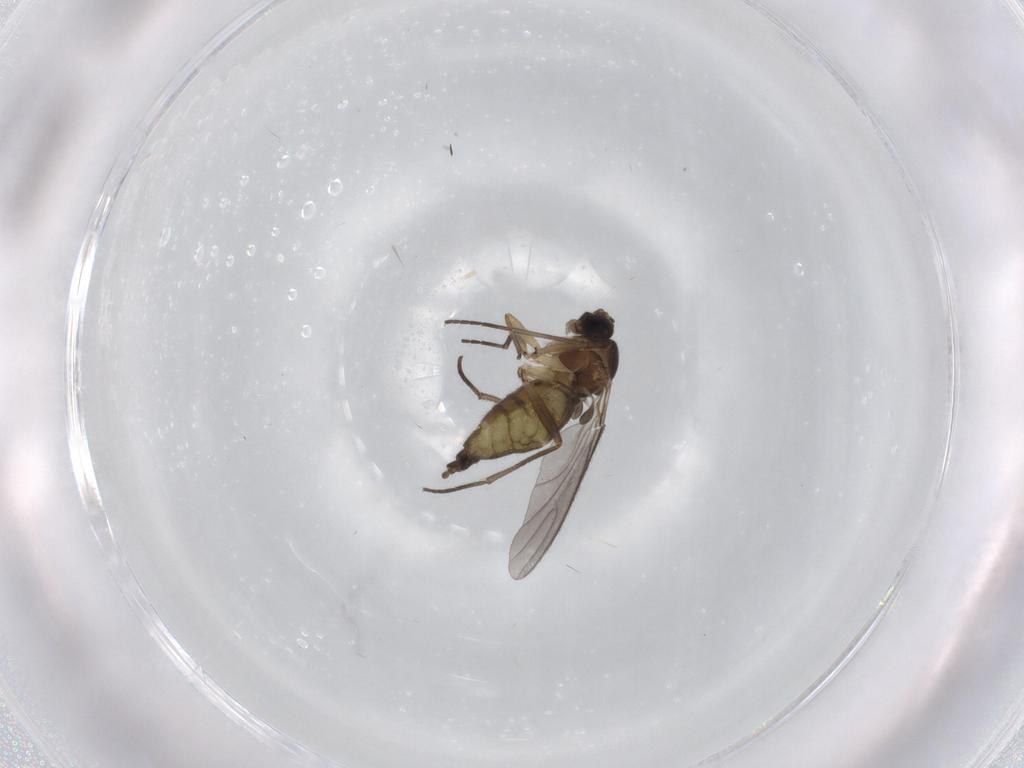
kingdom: Animalia
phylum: Arthropoda
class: Insecta
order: Diptera
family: Sciaridae
